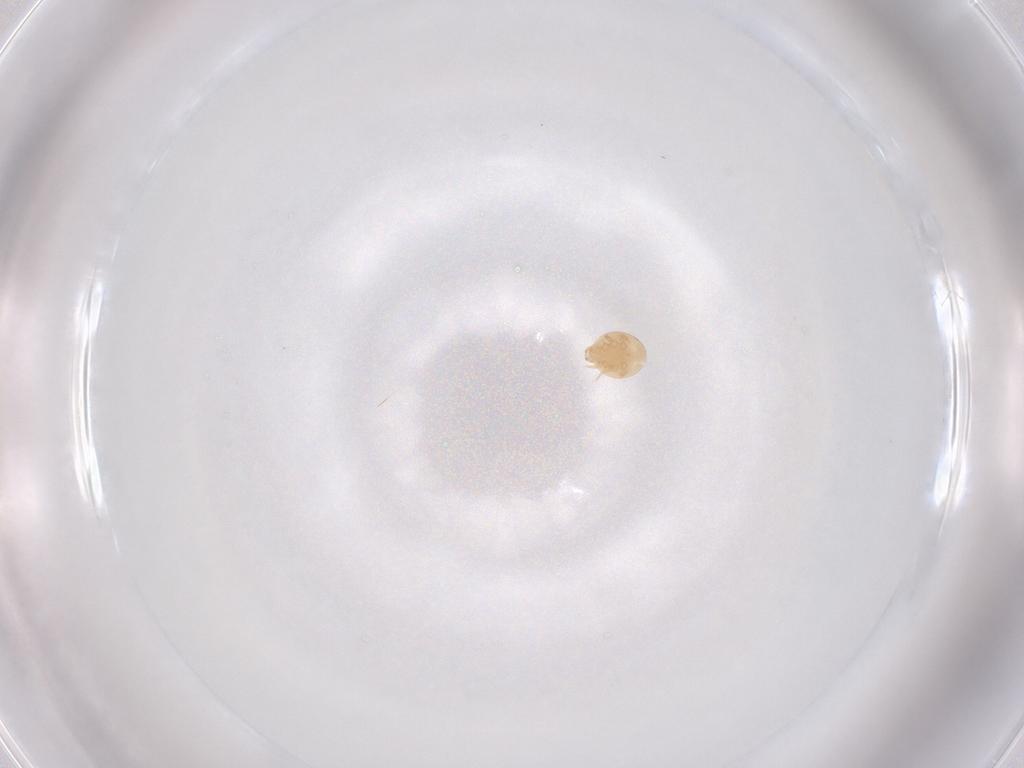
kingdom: Animalia
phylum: Arthropoda
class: Arachnida
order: Mesostigmata
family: Trematuridae
